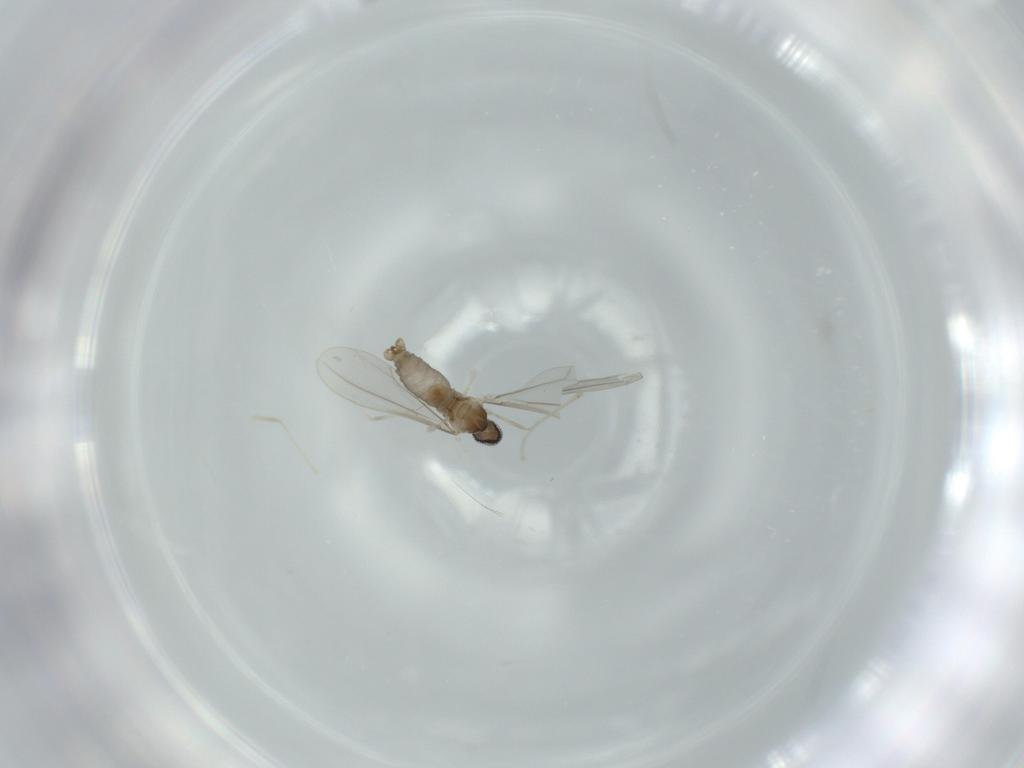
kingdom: Animalia
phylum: Arthropoda
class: Insecta
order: Diptera
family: Cecidomyiidae
